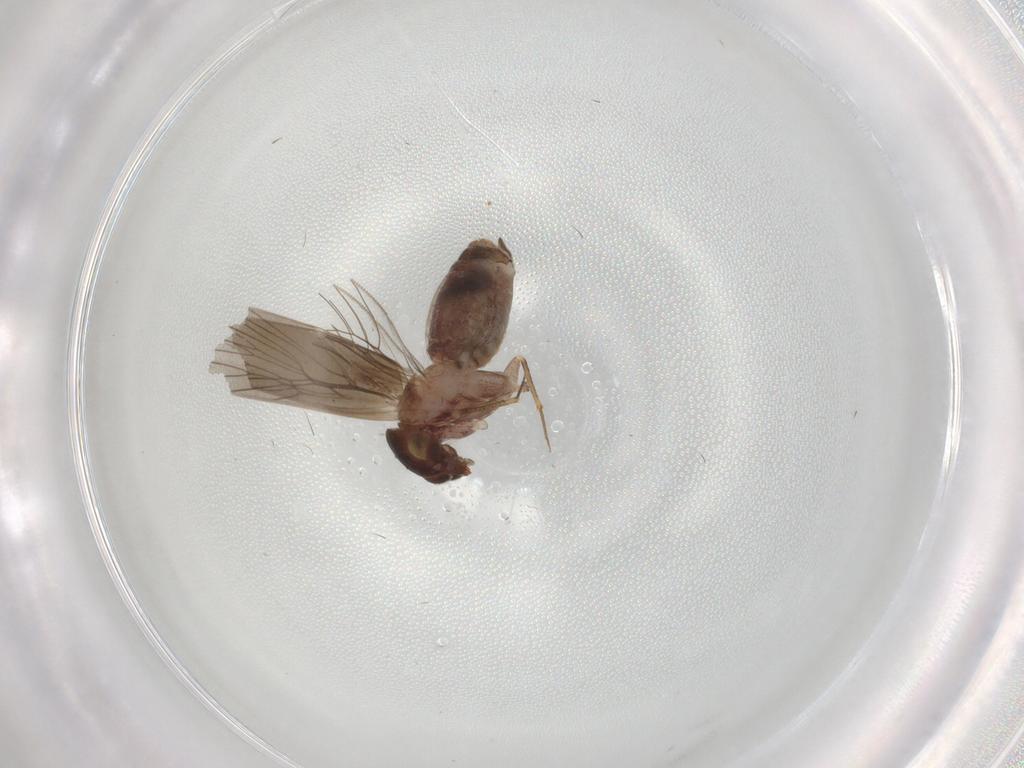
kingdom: Animalia
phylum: Arthropoda
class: Insecta
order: Psocodea
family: Lepidopsocidae
